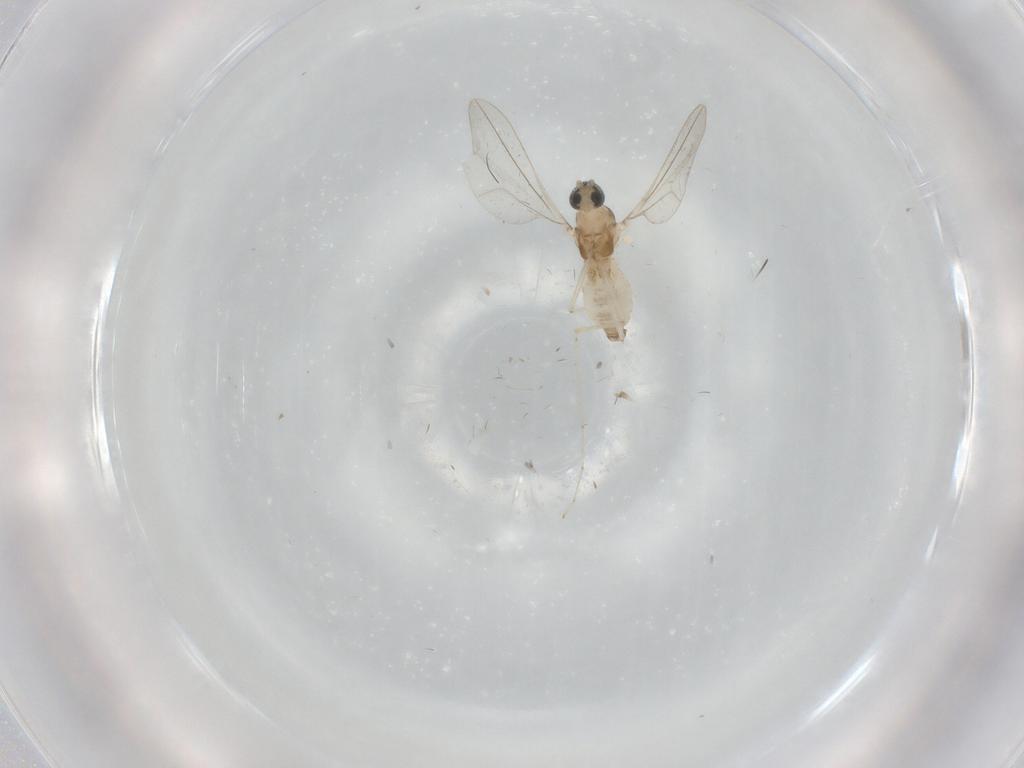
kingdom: Animalia
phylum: Arthropoda
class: Insecta
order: Diptera
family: Cecidomyiidae
